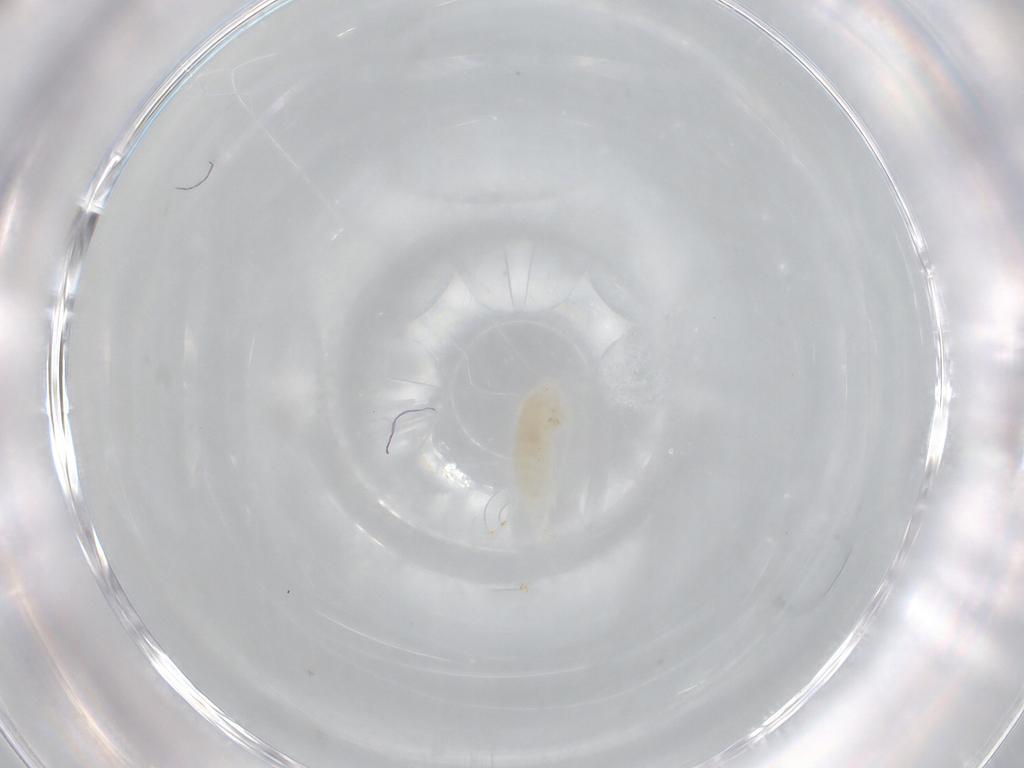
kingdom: Animalia
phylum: Arthropoda
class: Copepoda
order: Calanoida
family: Diaptomidae
